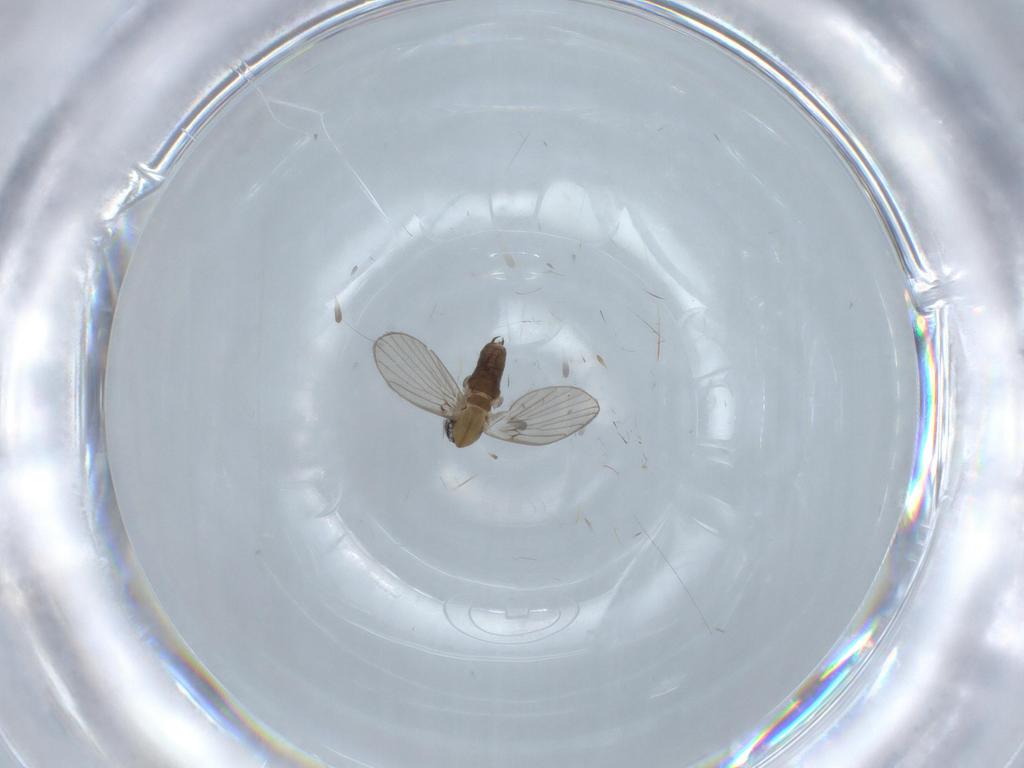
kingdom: Animalia
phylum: Arthropoda
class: Insecta
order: Diptera
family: Psychodidae
